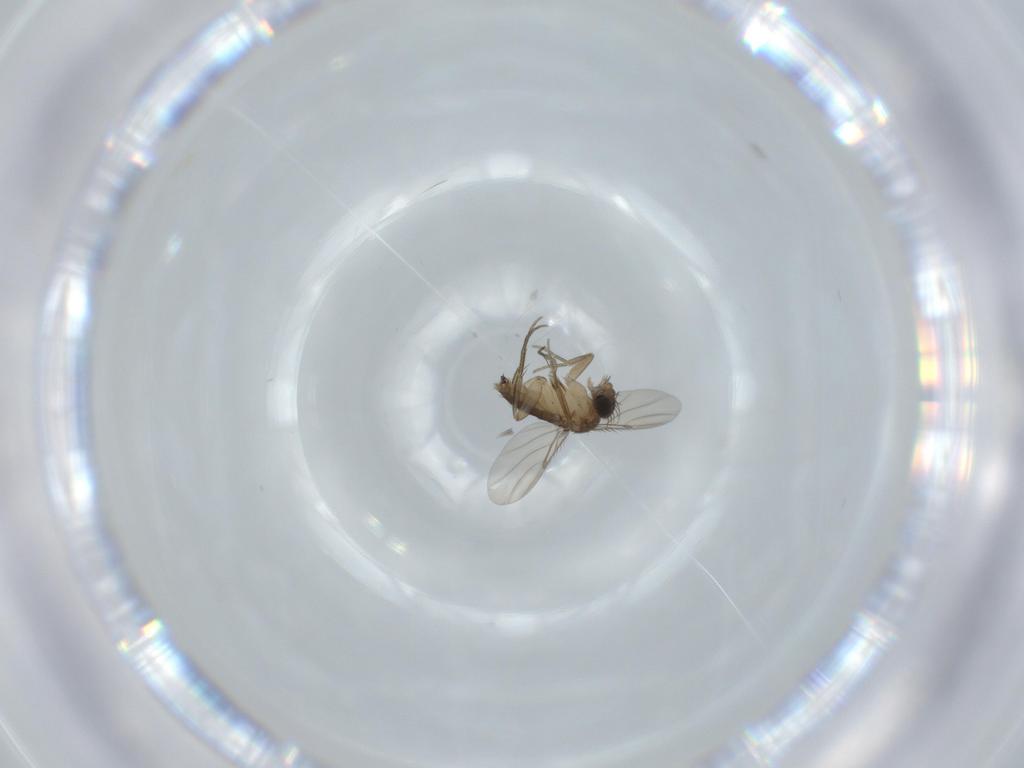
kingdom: Animalia
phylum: Arthropoda
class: Insecta
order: Diptera
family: Phoridae
